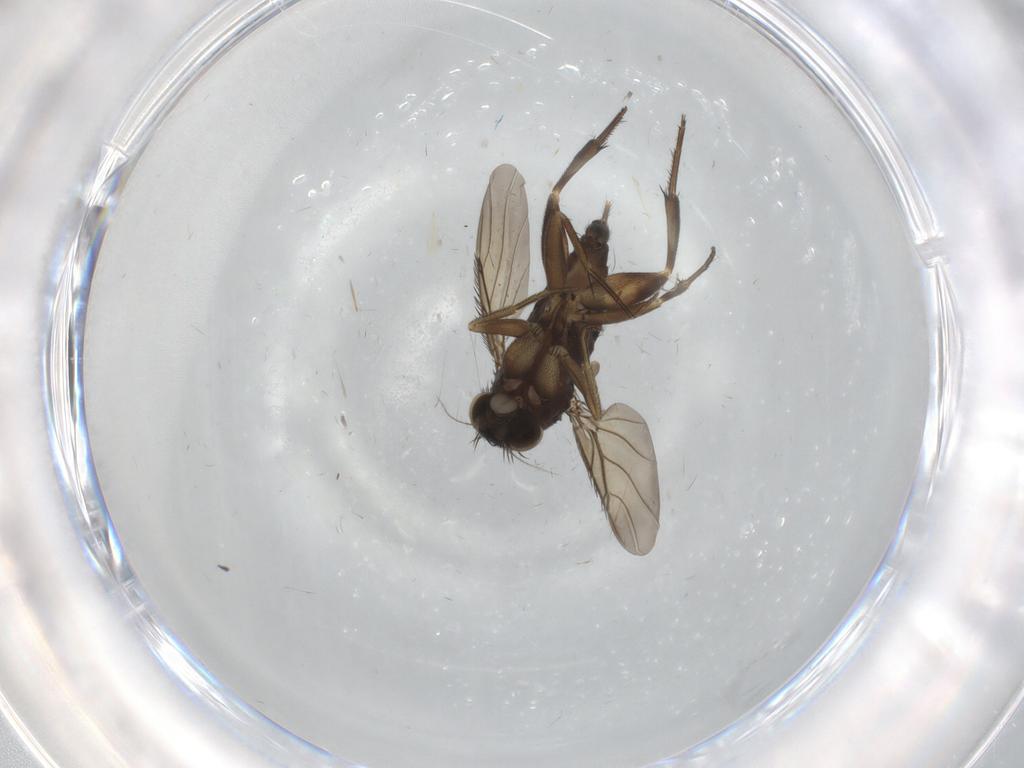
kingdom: Animalia
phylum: Arthropoda
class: Insecta
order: Diptera
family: Phoridae
